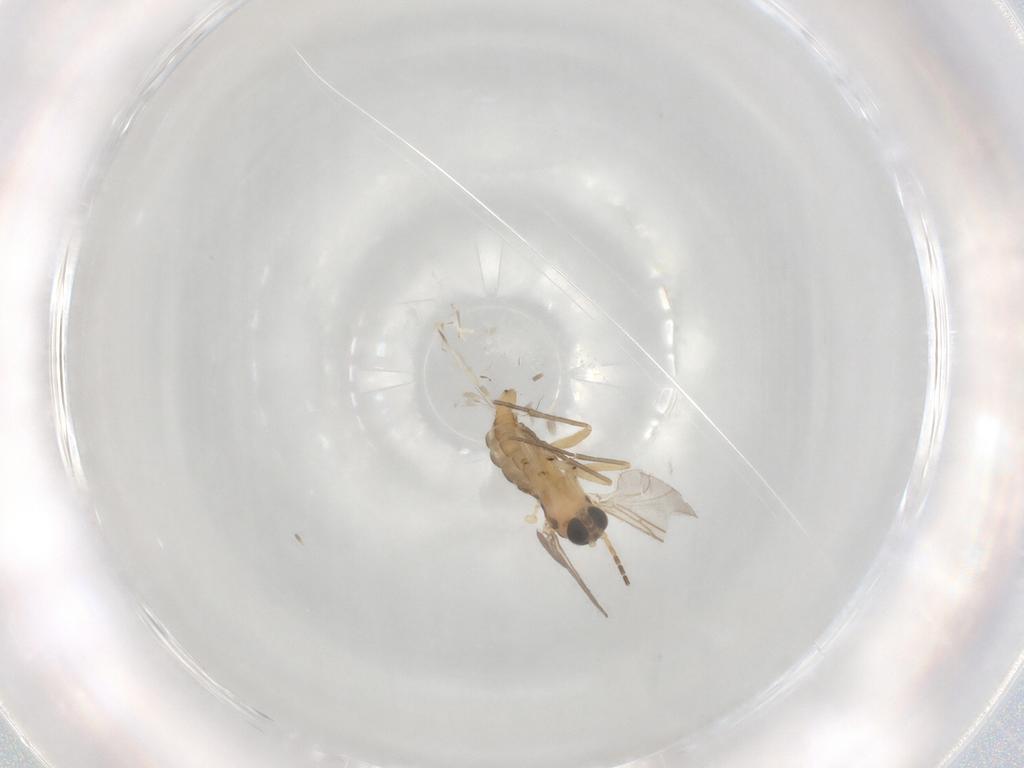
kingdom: Animalia
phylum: Arthropoda
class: Insecta
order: Diptera
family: Sciaridae
